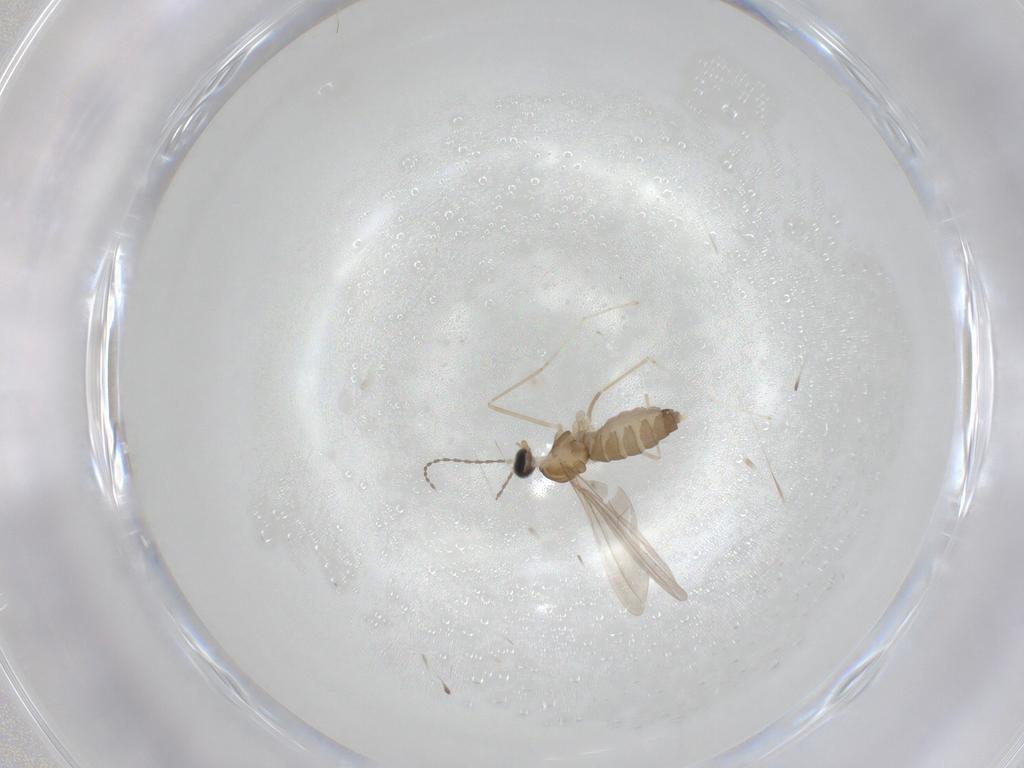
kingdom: Animalia
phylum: Arthropoda
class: Insecta
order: Diptera
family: Cecidomyiidae
